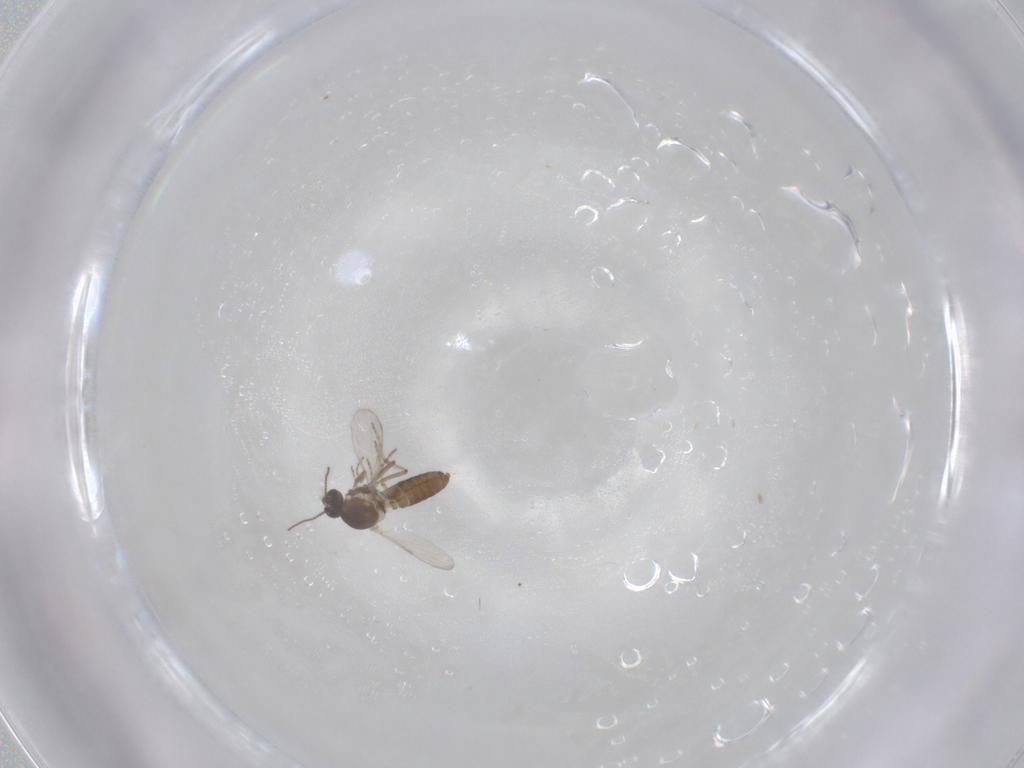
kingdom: Animalia
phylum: Arthropoda
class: Insecta
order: Diptera
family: Ceratopogonidae
